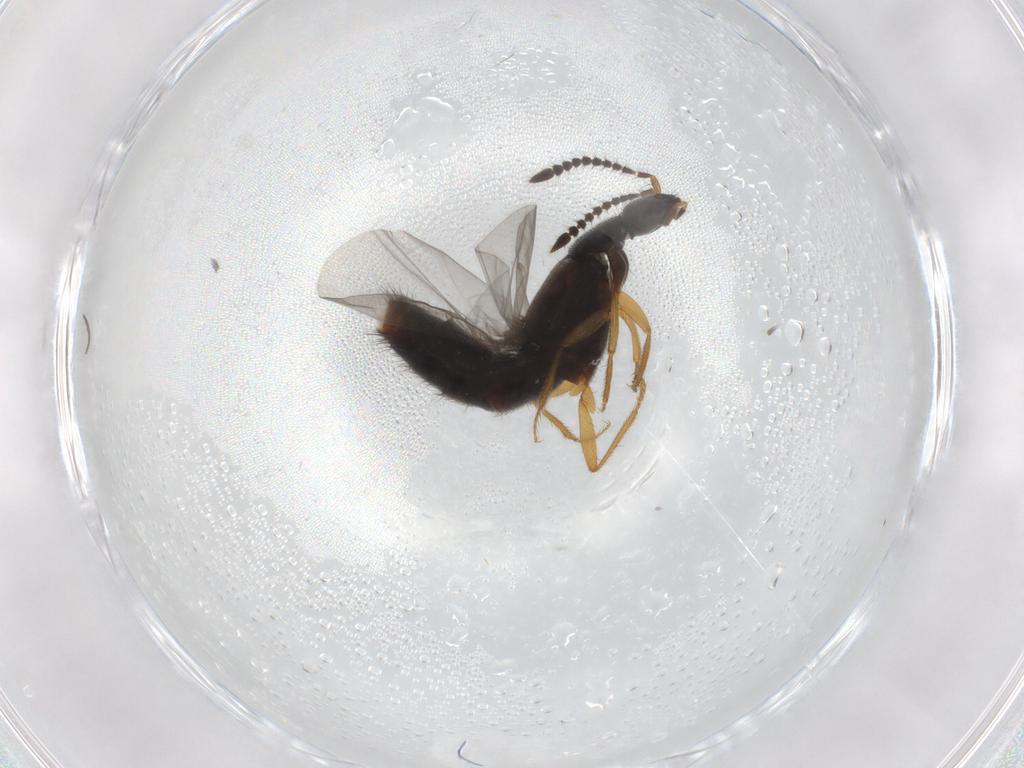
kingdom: Animalia
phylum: Arthropoda
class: Insecta
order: Coleoptera
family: Staphylinidae
